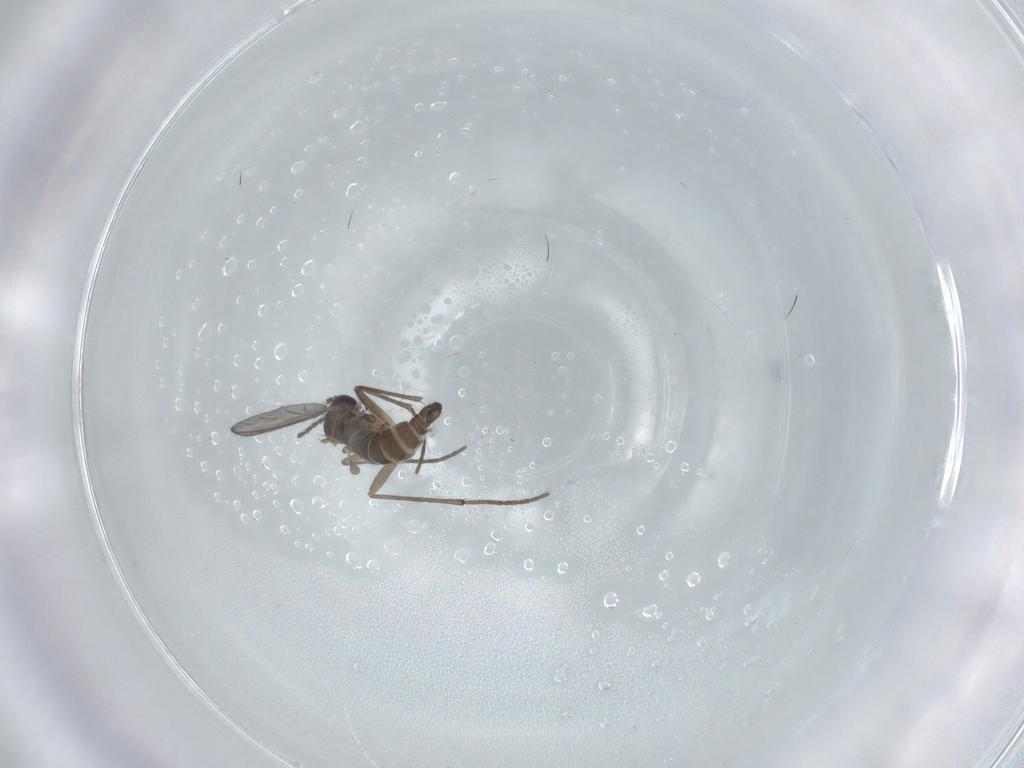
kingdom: Animalia
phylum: Arthropoda
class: Insecta
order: Diptera
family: Sciaridae
